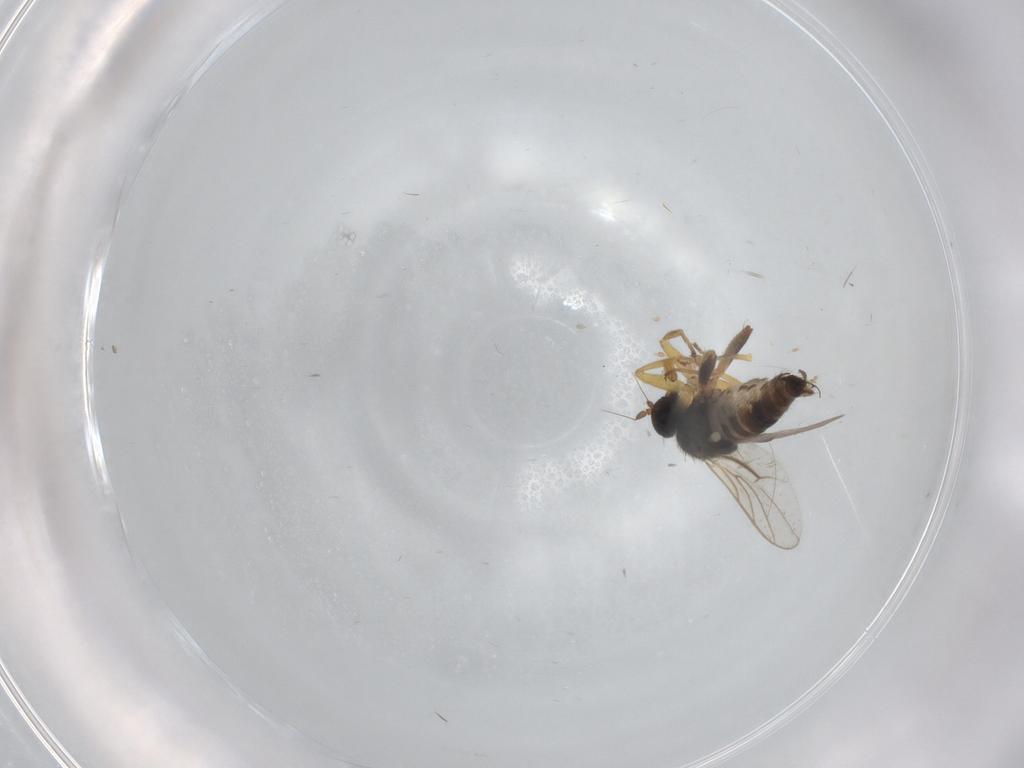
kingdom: Animalia
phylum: Arthropoda
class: Insecta
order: Diptera
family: Hybotidae
